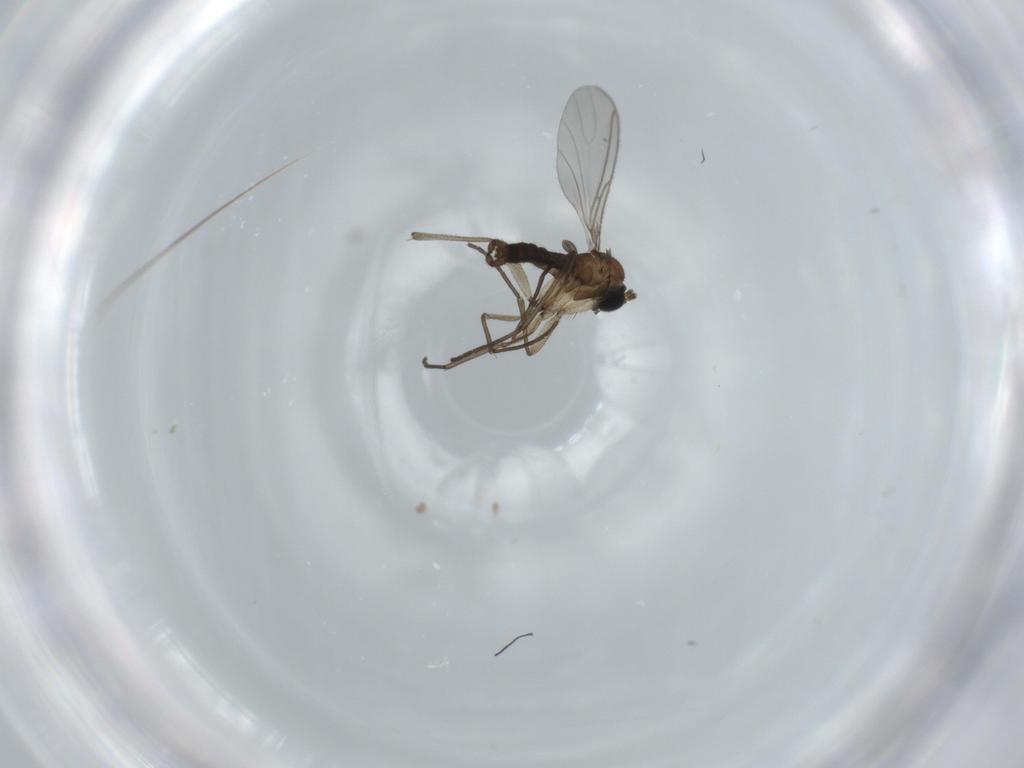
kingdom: Animalia
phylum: Arthropoda
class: Insecta
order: Diptera
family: Sciaridae
